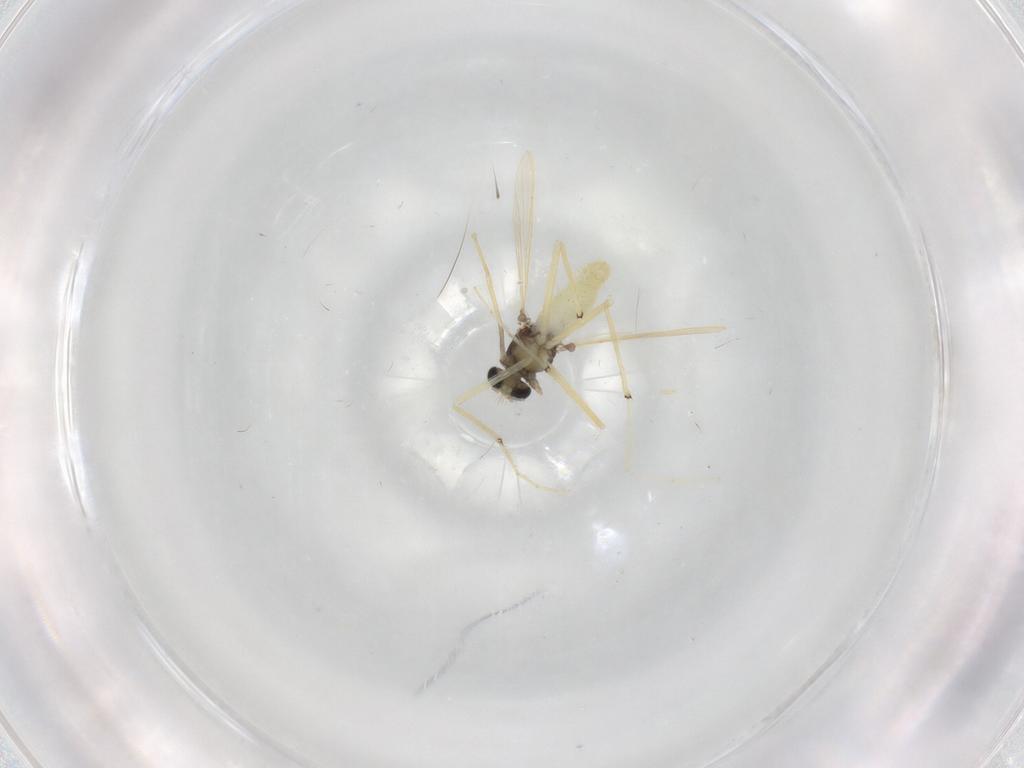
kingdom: Animalia
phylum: Arthropoda
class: Insecta
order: Diptera
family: Chironomidae
